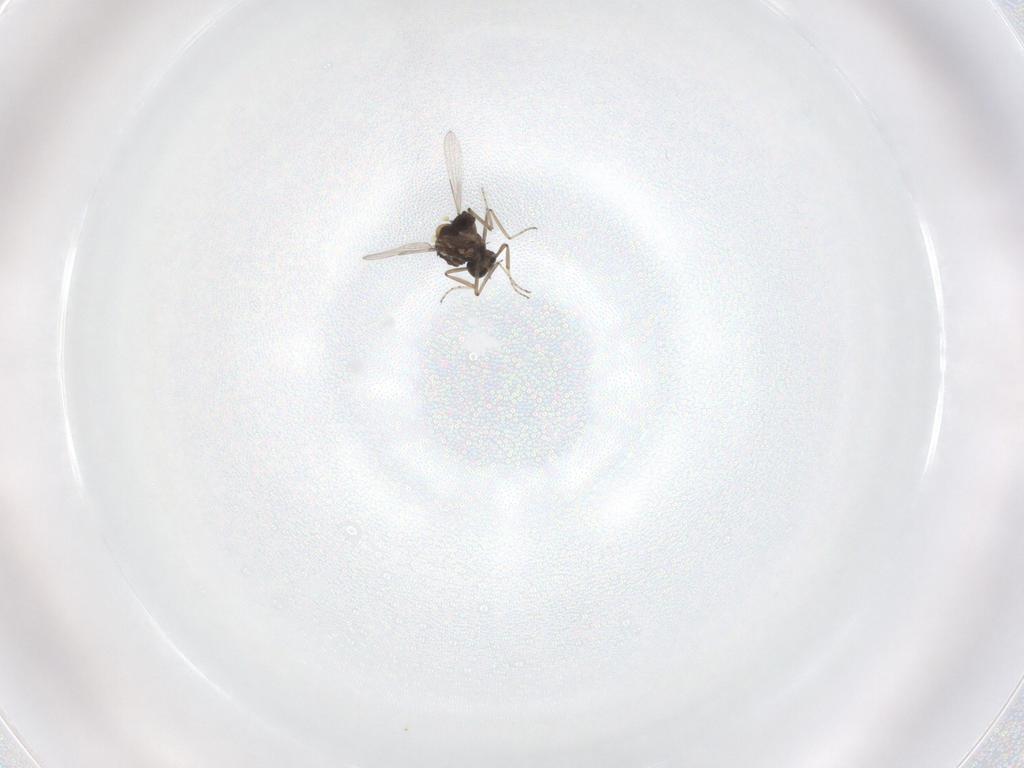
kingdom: Animalia
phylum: Arthropoda
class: Insecta
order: Diptera
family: Ceratopogonidae
